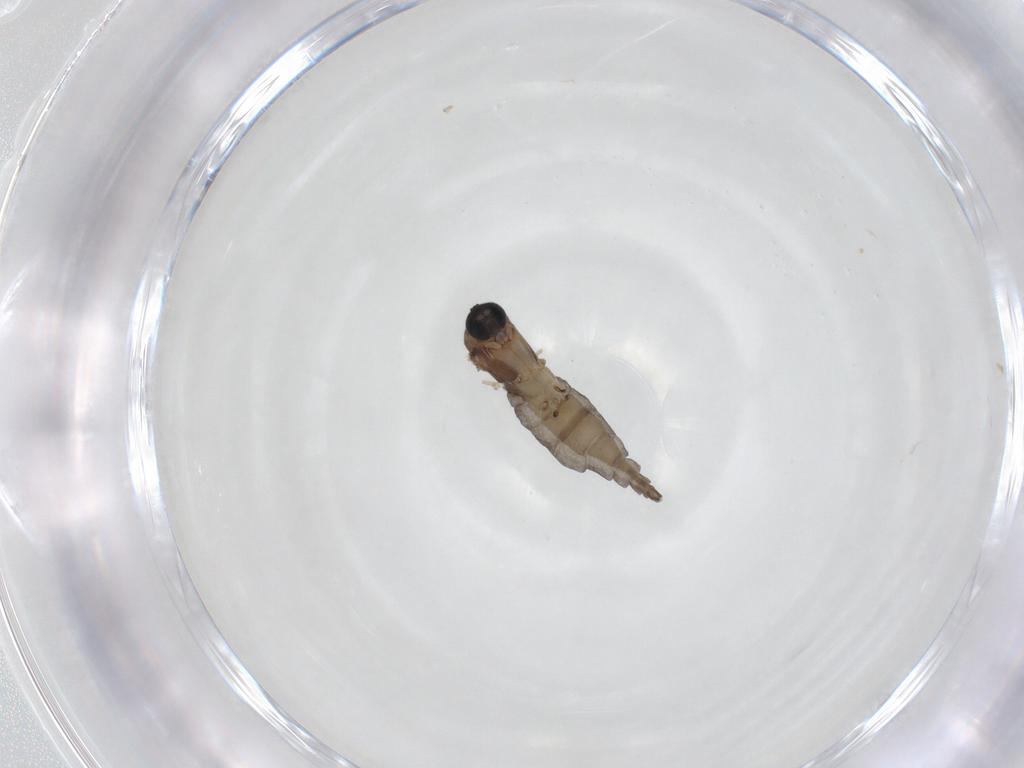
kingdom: Animalia
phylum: Arthropoda
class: Insecta
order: Diptera
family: Sciaridae
